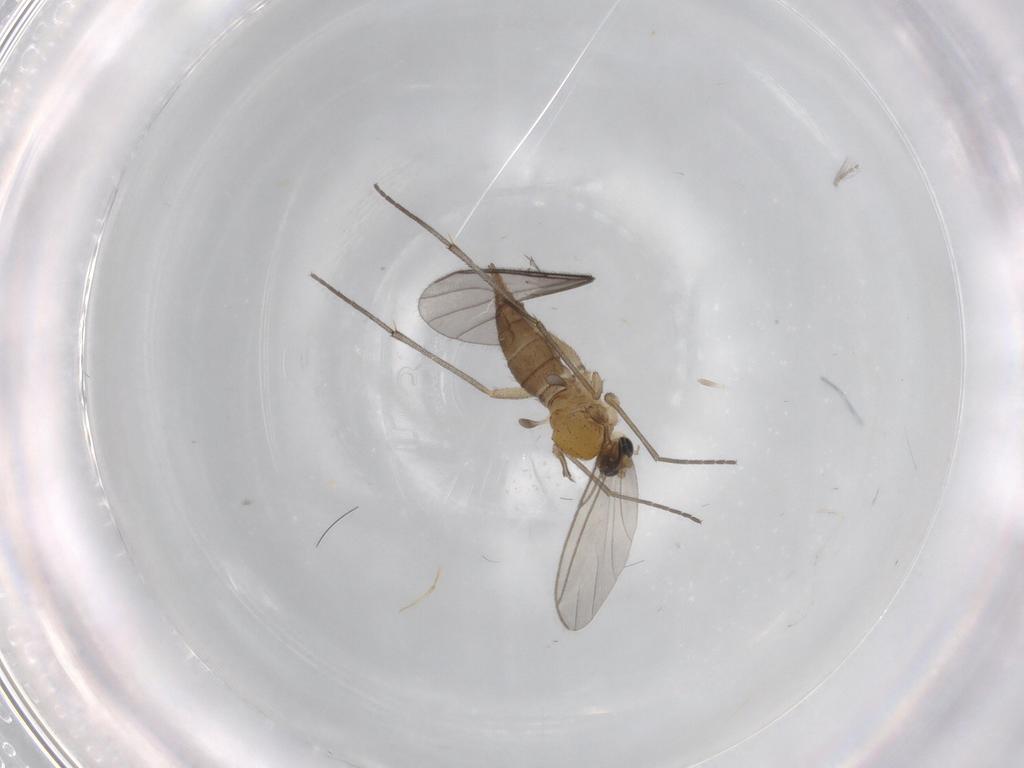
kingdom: Animalia
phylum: Arthropoda
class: Insecta
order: Diptera
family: Sciaridae
